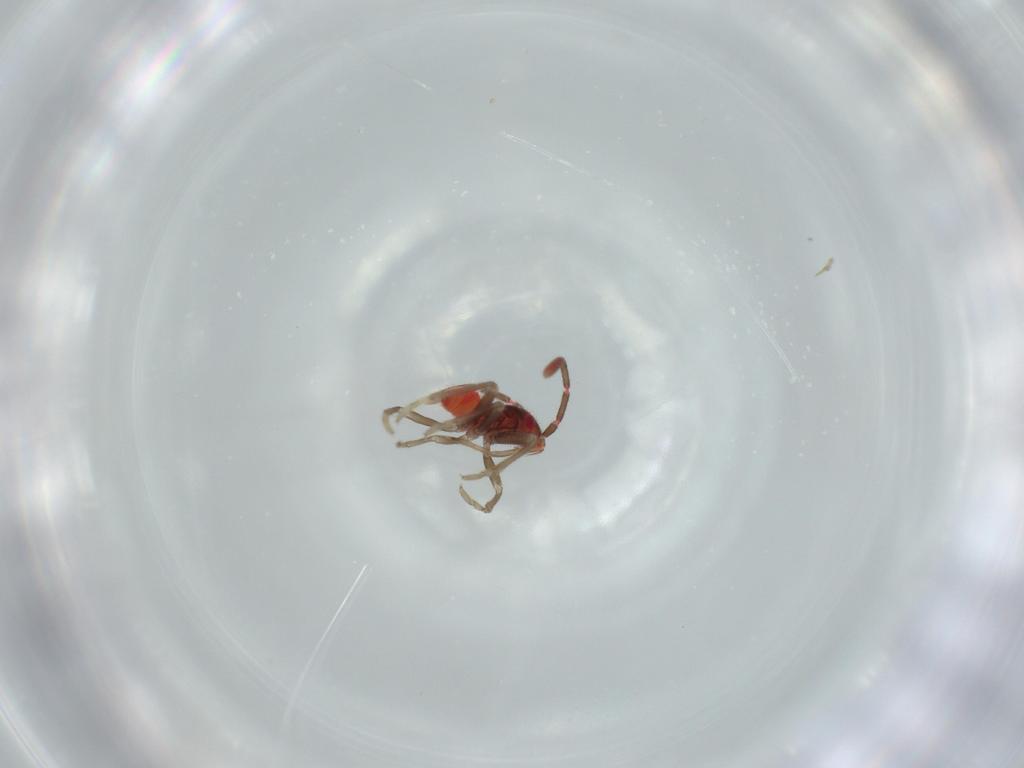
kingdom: Animalia
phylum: Arthropoda
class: Insecta
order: Hemiptera
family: Rhyparochromidae
